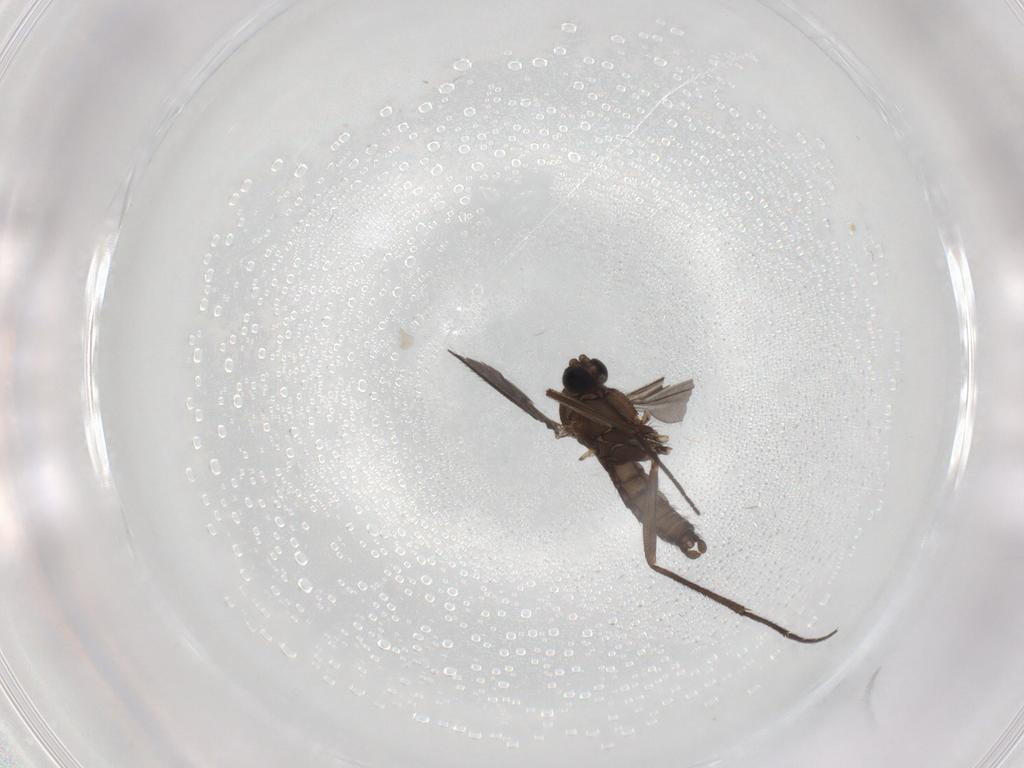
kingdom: Animalia
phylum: Arthropoda
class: Insecta
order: Diptera
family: Sciaridae
